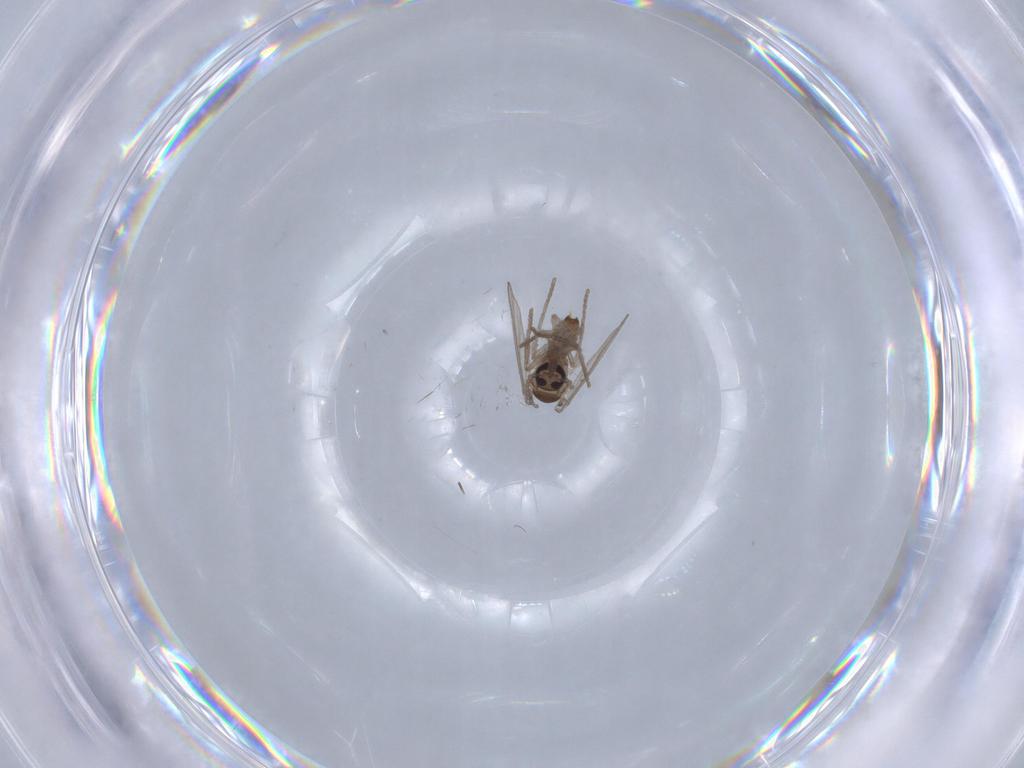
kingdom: Animalia
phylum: Arthropoda
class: Insecta
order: Diptera
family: Psychodidae
